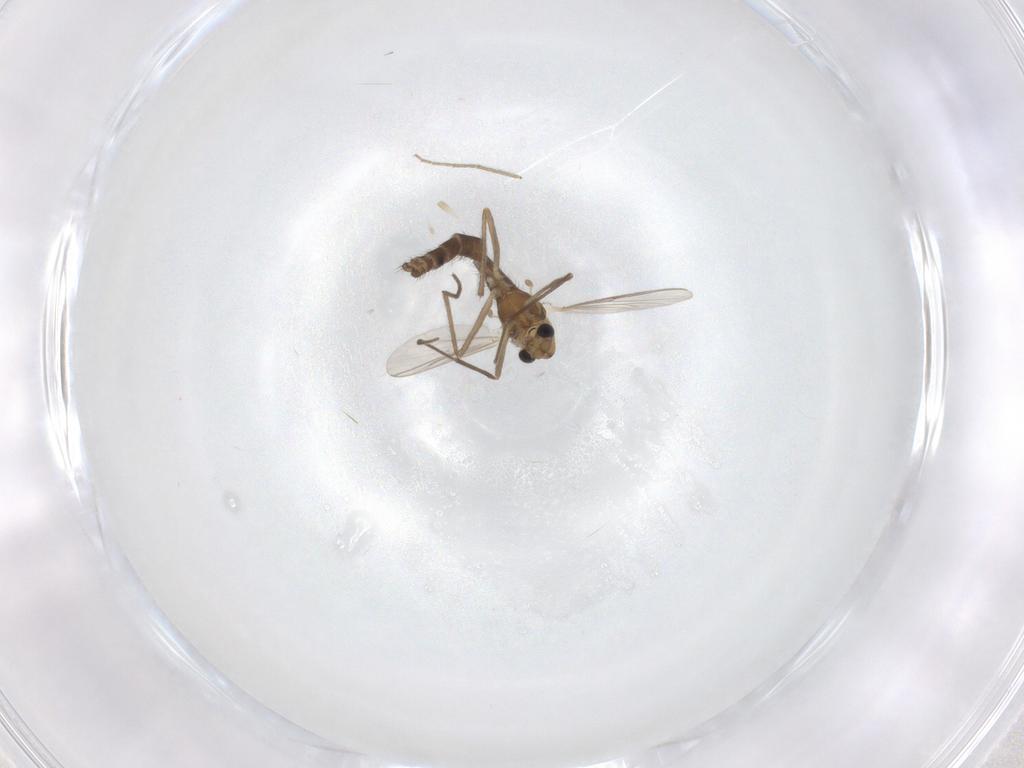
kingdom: Animalia
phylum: Arthropoda
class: Insecta
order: Diptera
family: Chironomidae
